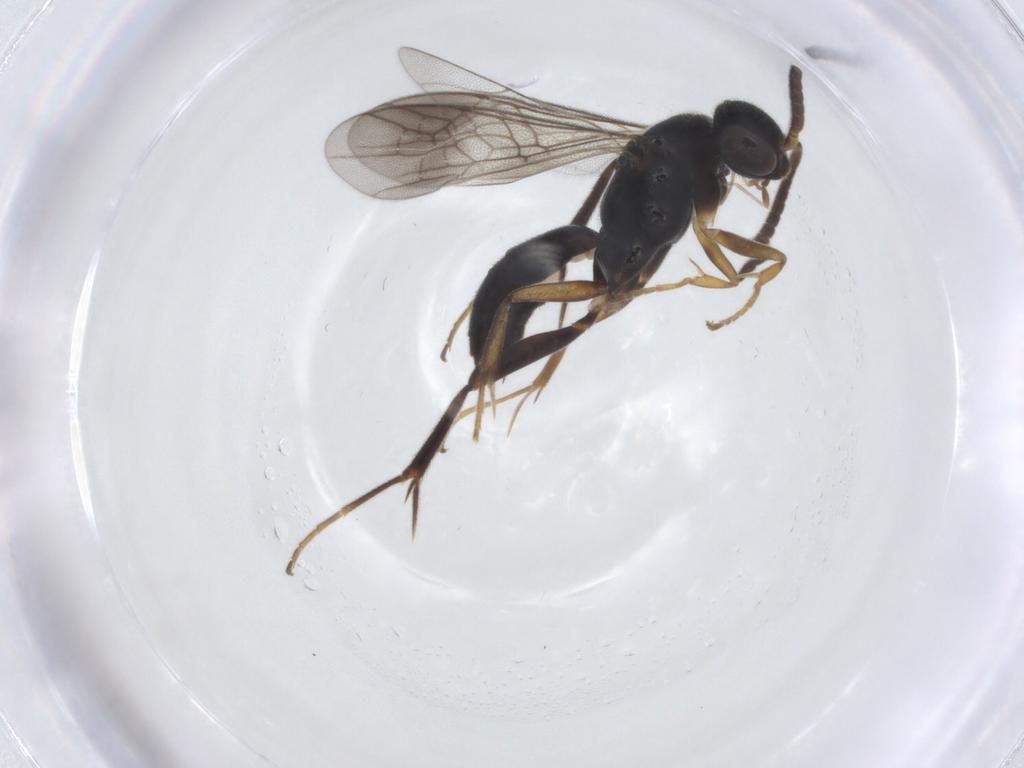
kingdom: Animalia
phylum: Arthropoda
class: Insecta
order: Hymenoptera
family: Pompilidae
